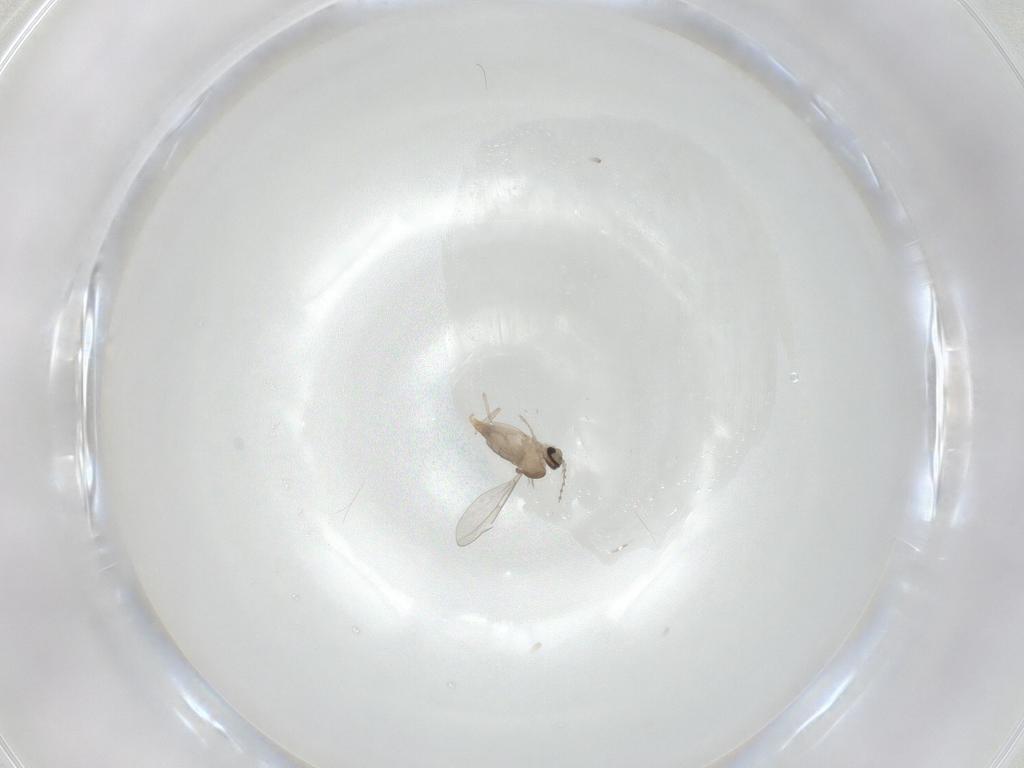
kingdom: Animalia
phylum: Arthropoda
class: Insecta
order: Diptera
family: Cecidomyiidae
